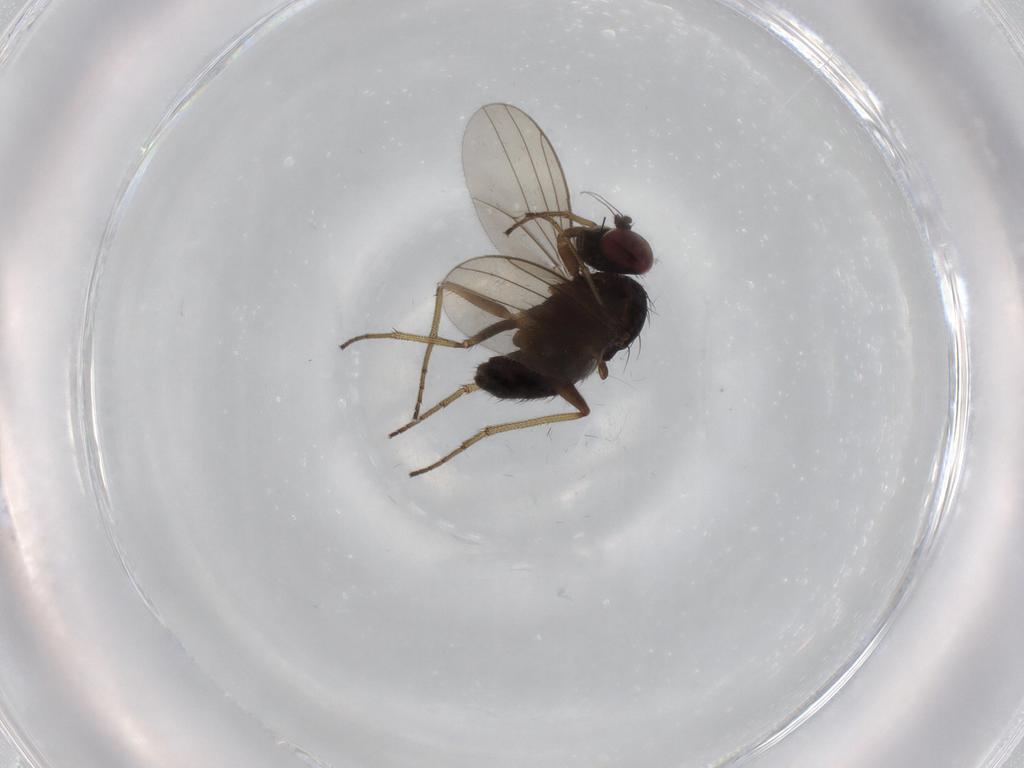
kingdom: Animalia
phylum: Arthropoda
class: Insecta
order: Diptera
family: Dolichopodidae
